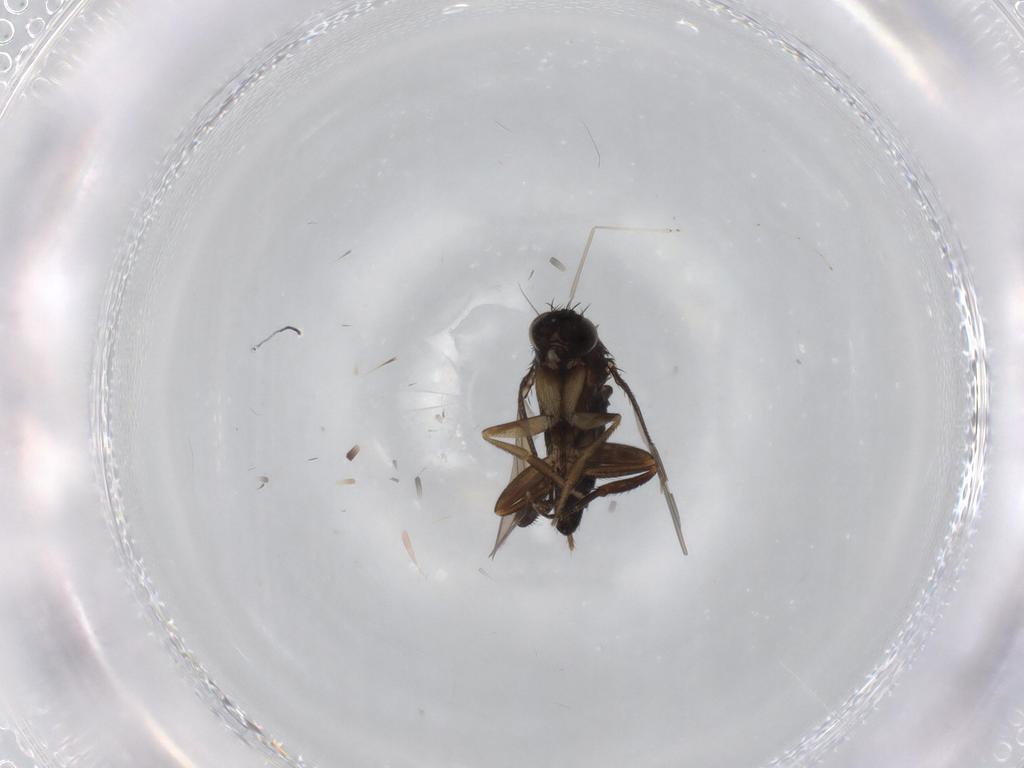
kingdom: Animalia
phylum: Arthropoda
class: Insecta
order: Diptera
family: Phoridae
